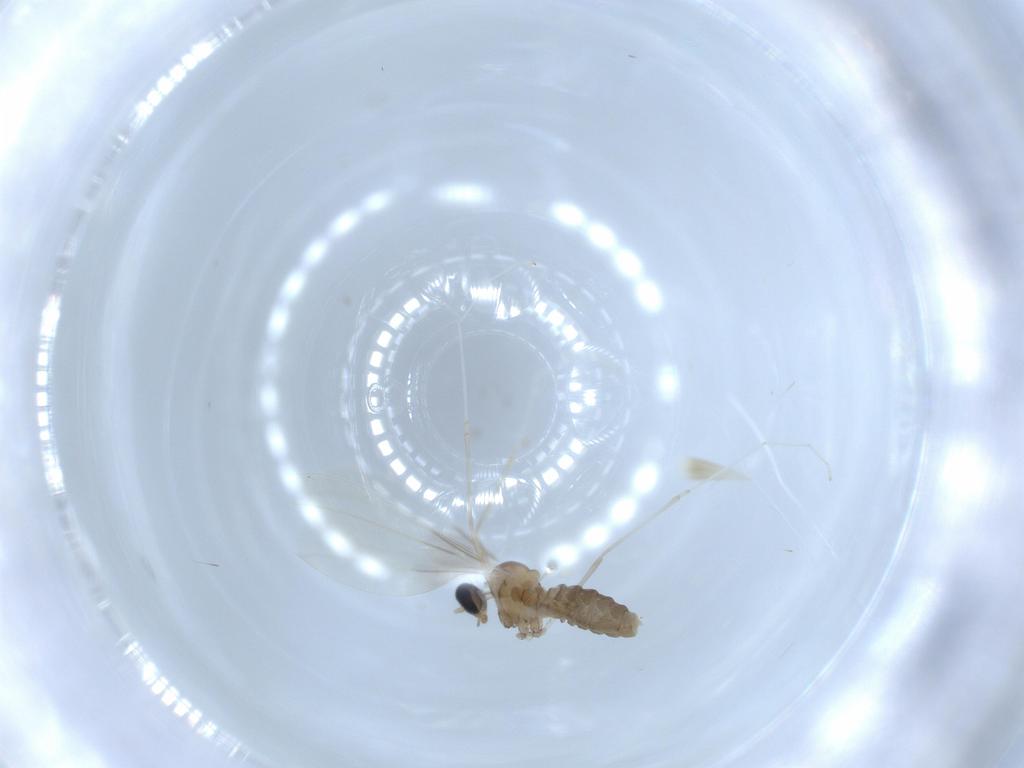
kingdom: Animalia
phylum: Arthropoda
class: Insecta
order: Diptera
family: Cecidomyiidae
